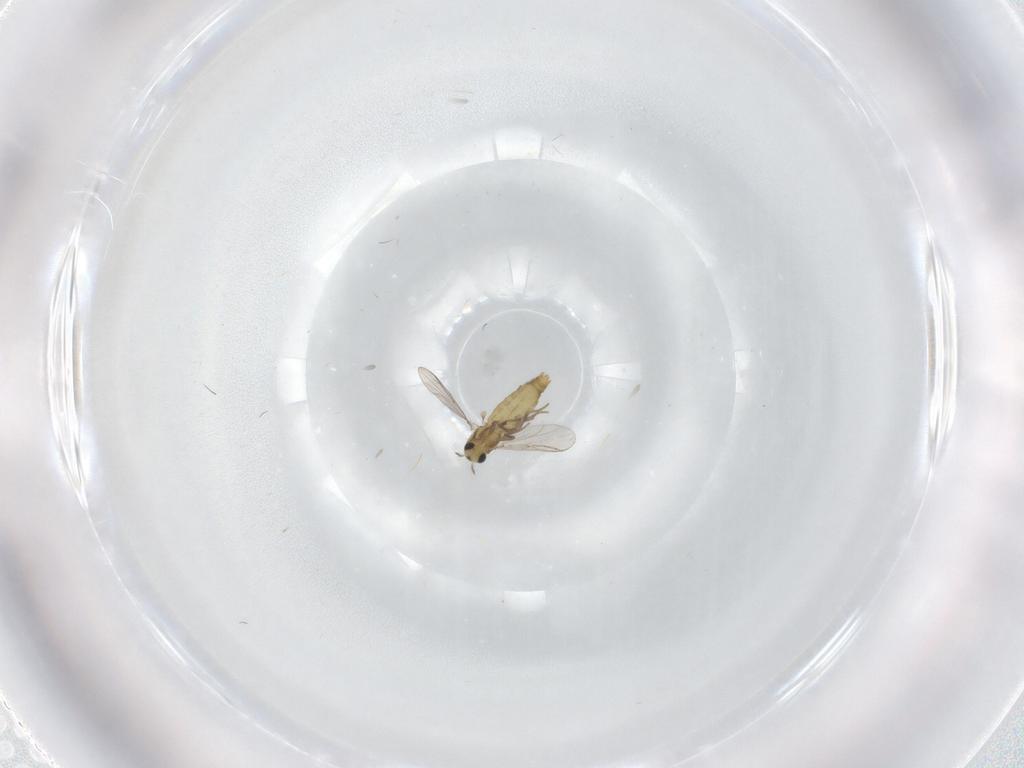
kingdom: Animalia
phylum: Arthropoda
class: Insecta
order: Diptera
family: Chironomidae
